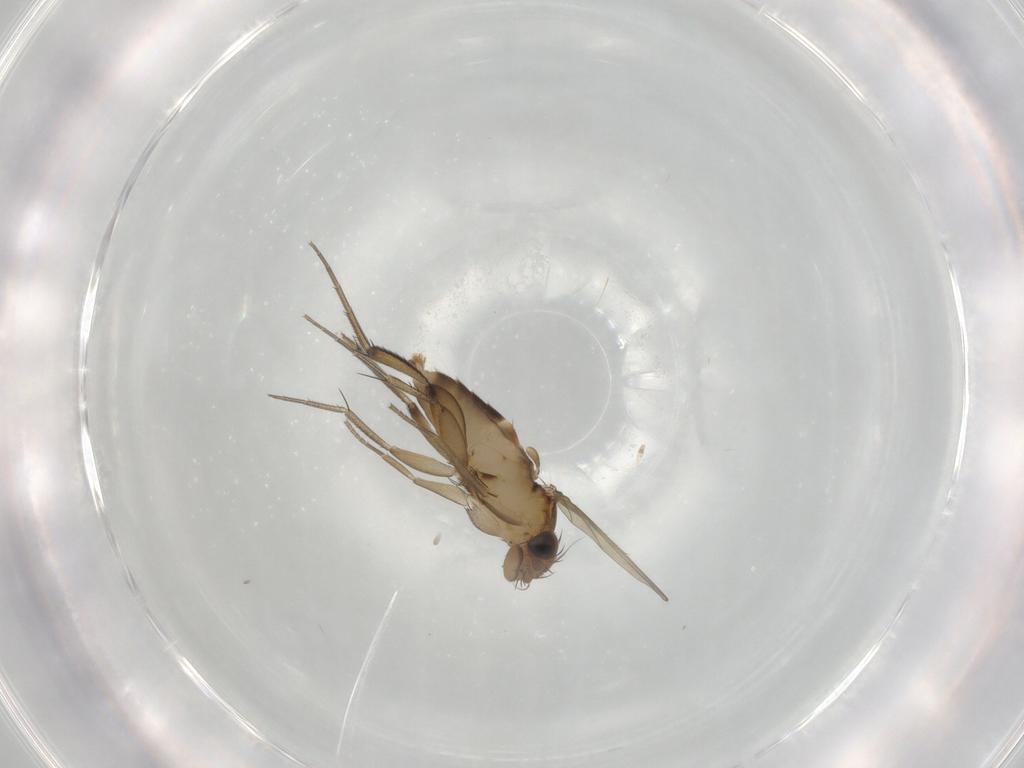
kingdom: Animalia
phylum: Arthropoda
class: Insecta
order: Diptera
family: Phoridae
